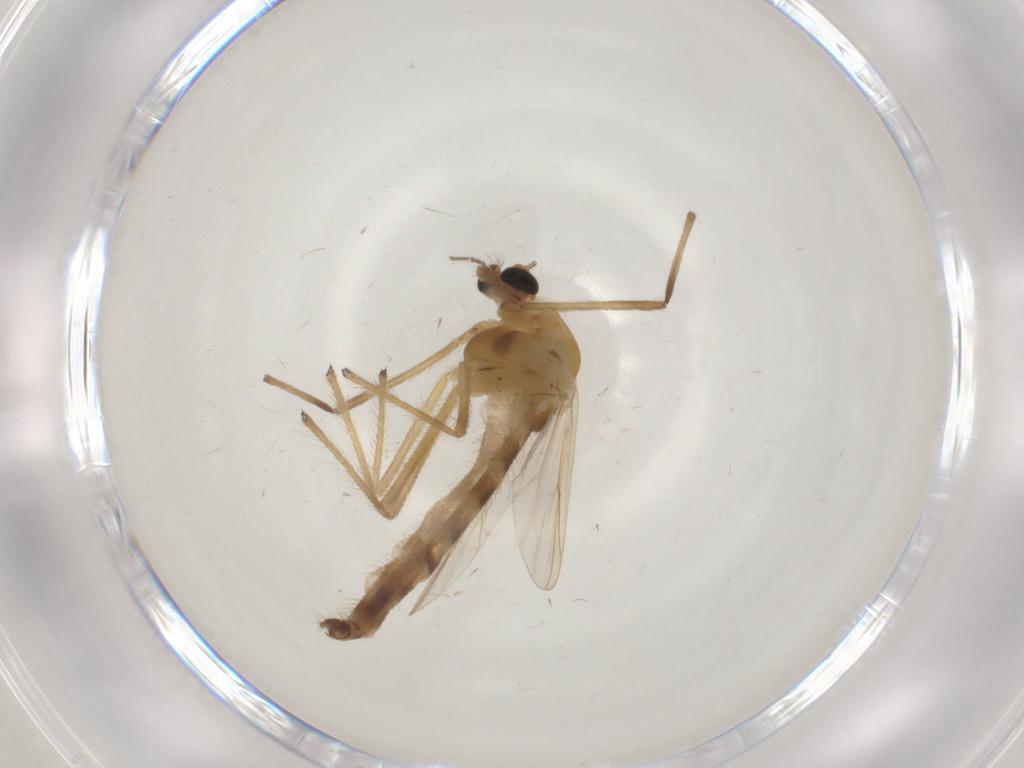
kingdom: Animalia
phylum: Arthropoda
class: Insecta
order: Diptera
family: Chironomidae
